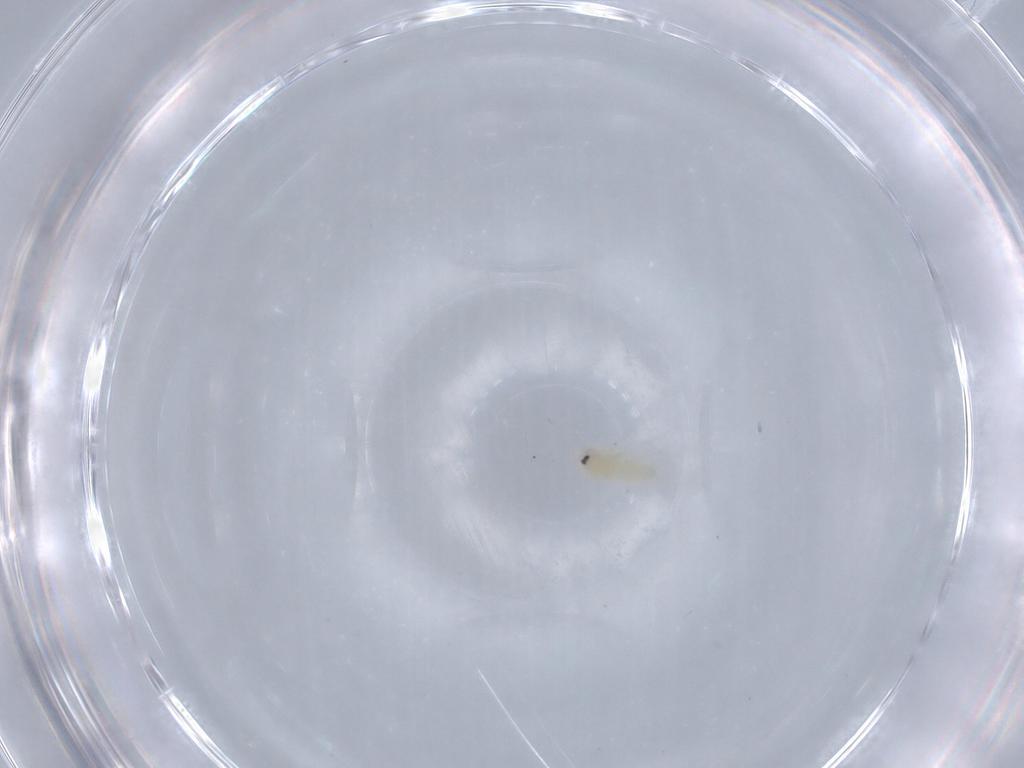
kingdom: Animalia
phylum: Arthropoda
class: Insecta
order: Hemiptera
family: Aleyrodidae
